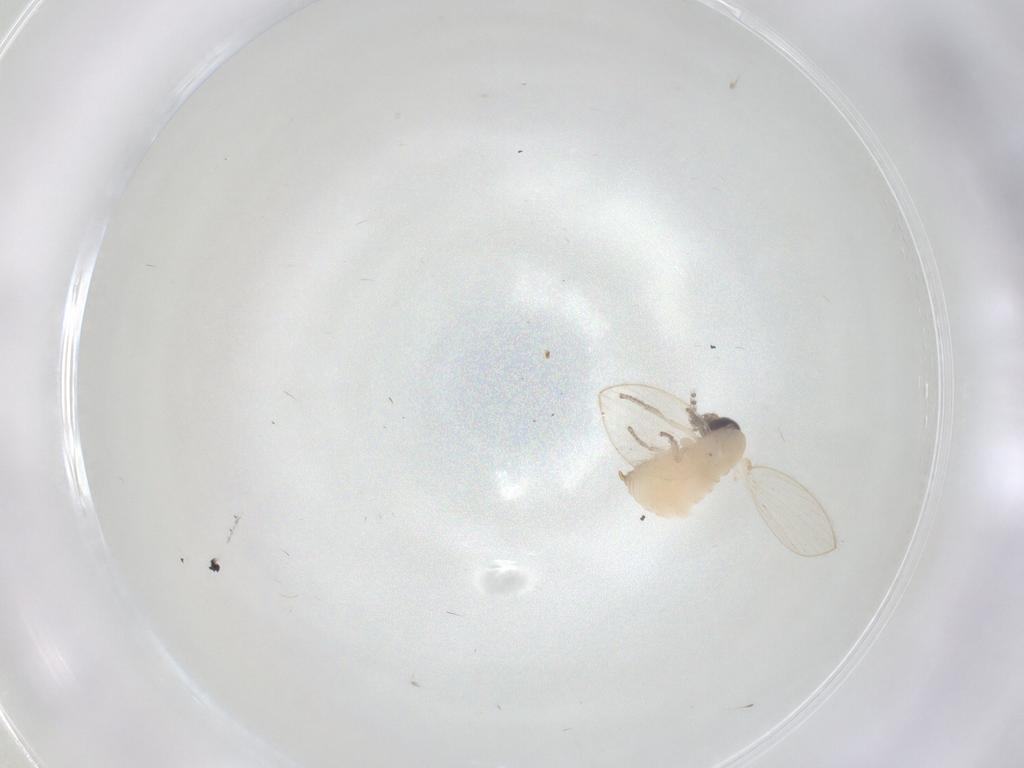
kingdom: Animalia
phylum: Arthropoda
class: Insecta
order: Diptera
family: Psychodidae
